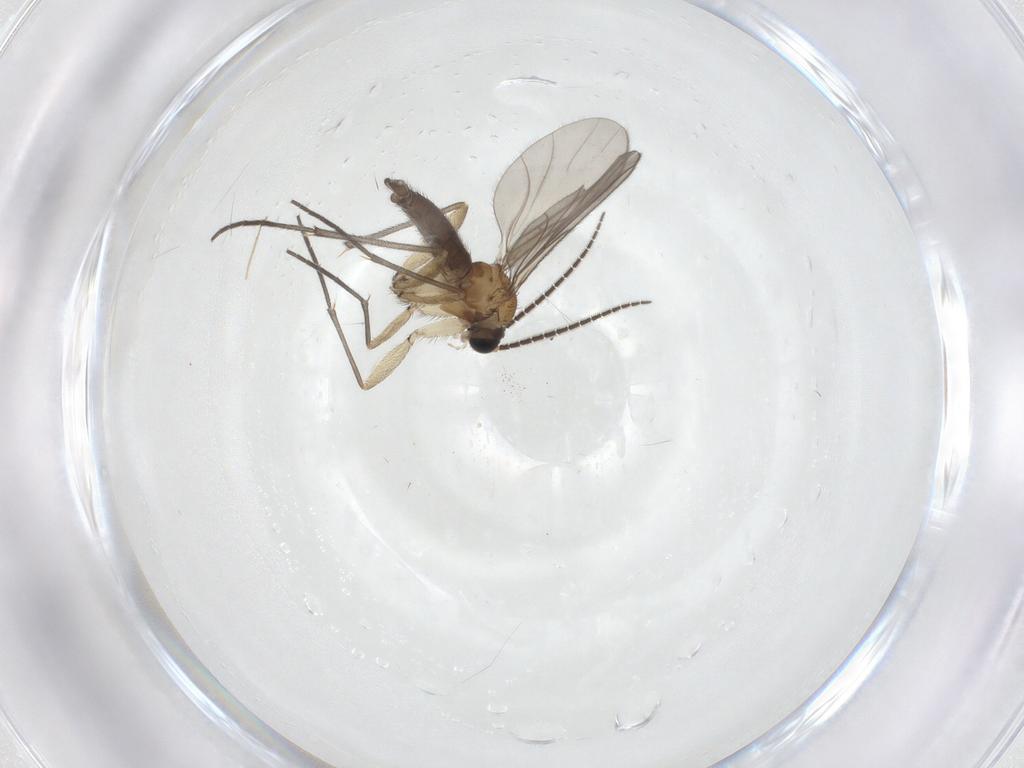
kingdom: Animalia
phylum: Arthropoda
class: Insecta
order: Diptera
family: Sciaridae
